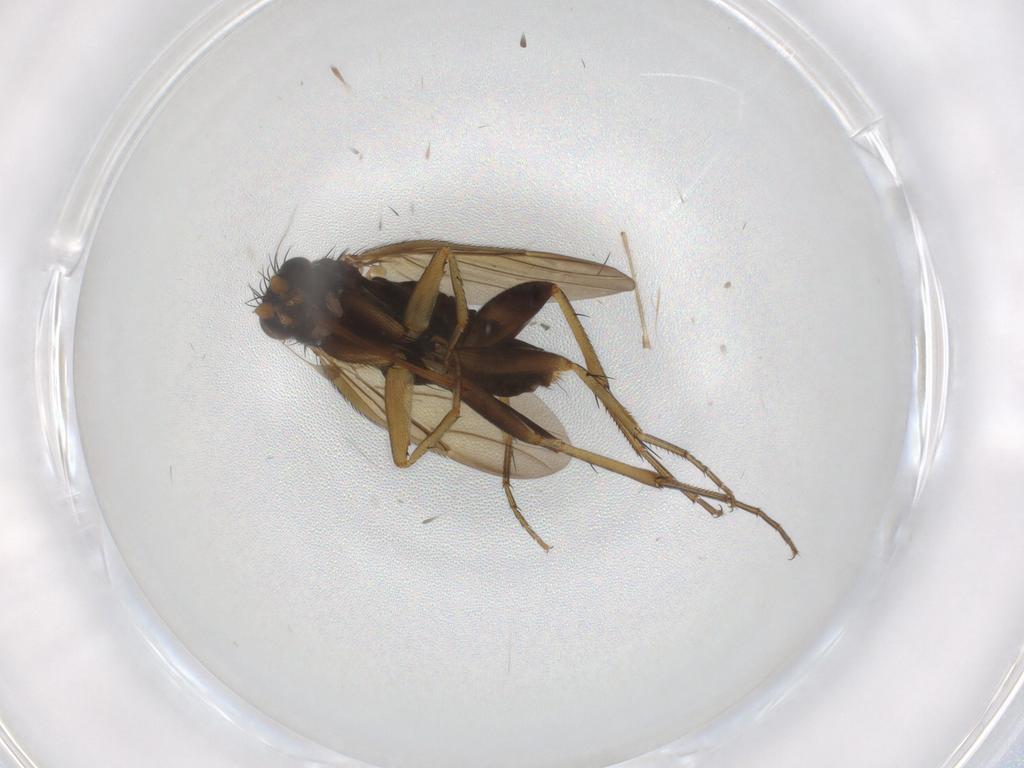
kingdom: Animalia
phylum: Arthropoda
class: Insecta
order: Diptera
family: Phoridae
